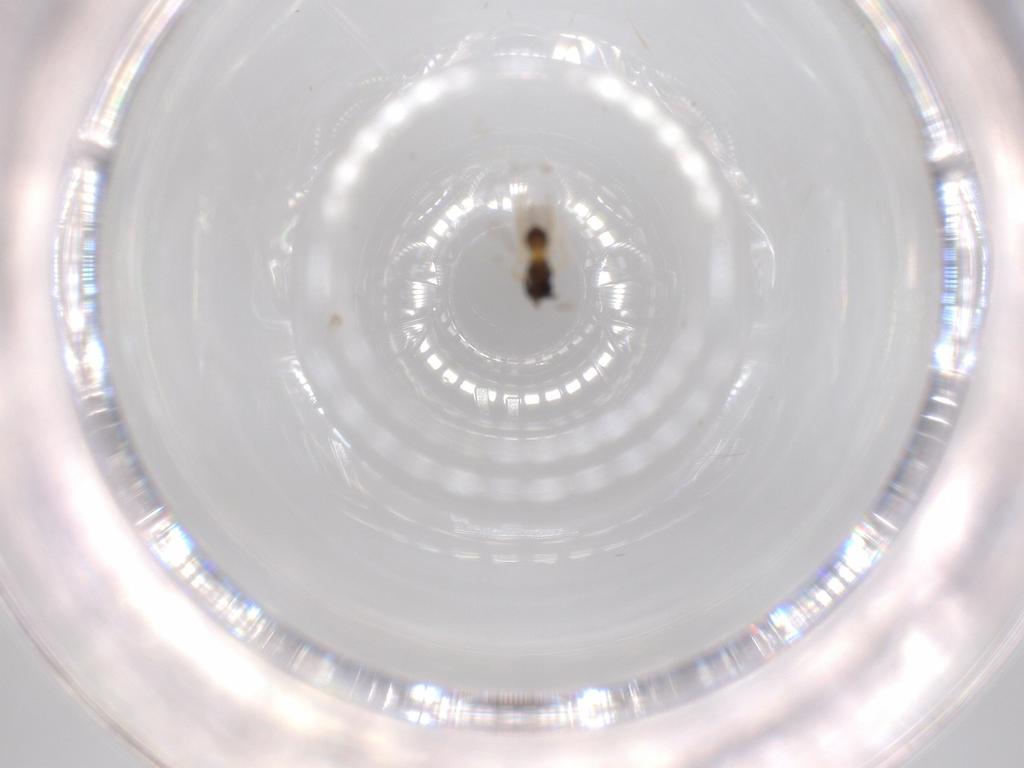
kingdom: Animalia
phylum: Arthropoda
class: Insecta
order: Hymenoptera
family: Scelionidae
